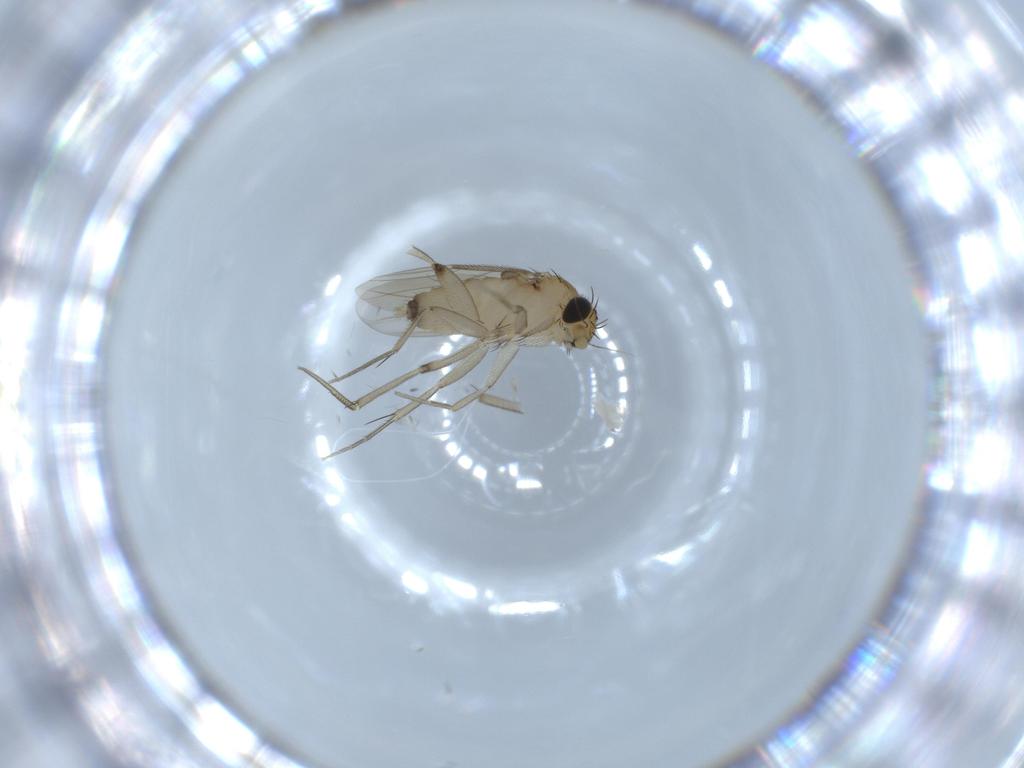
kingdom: Animalia
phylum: Arthropoda
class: Insecta
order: Diptera
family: Phoridae
